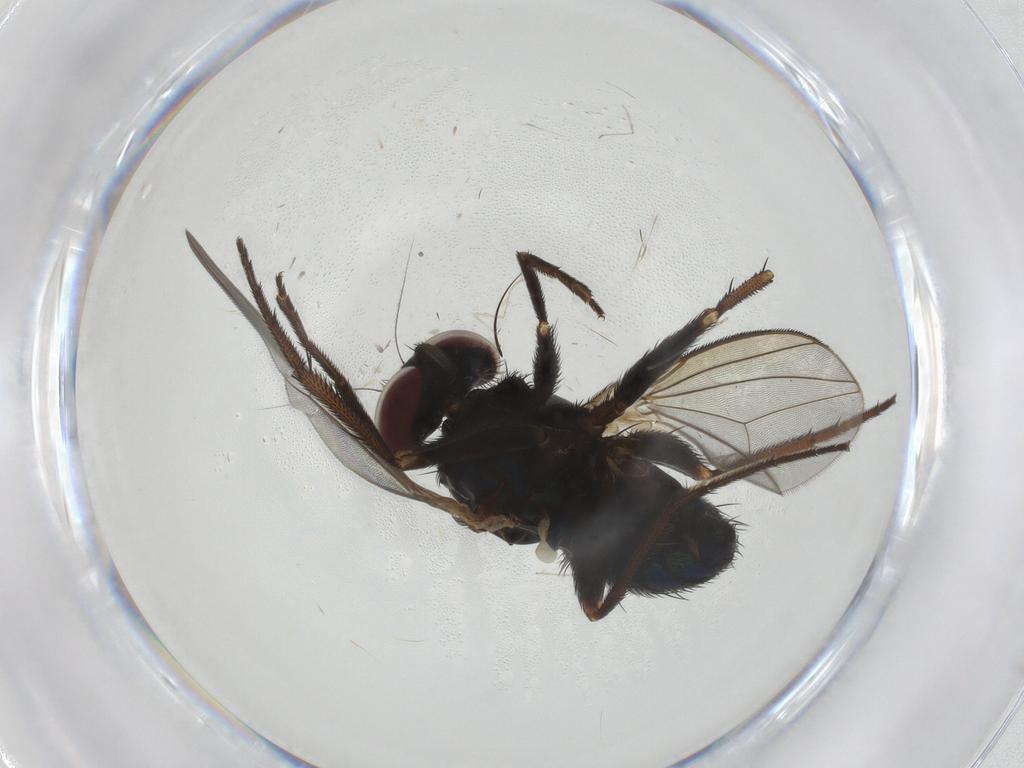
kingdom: Animalia
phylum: Arthropoda
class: Insecta
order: Diptera
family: Dolichopodidae
